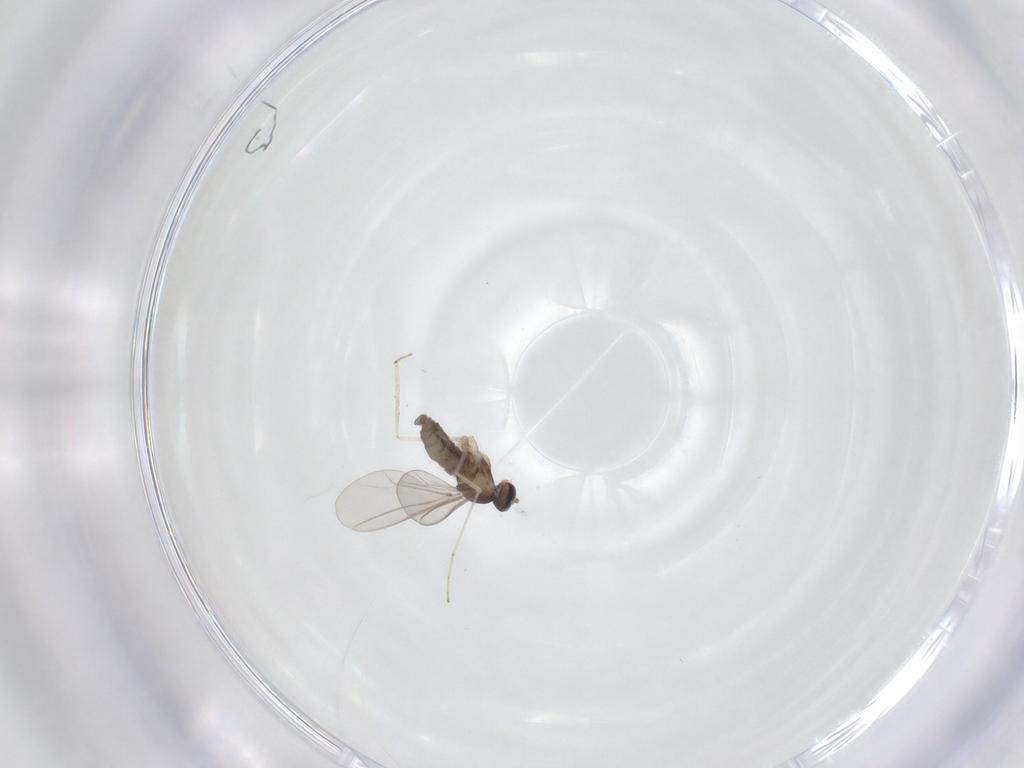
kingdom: Animalia
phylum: Arthropoda
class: Insecta
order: Diptera
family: Cecidomyiidae
